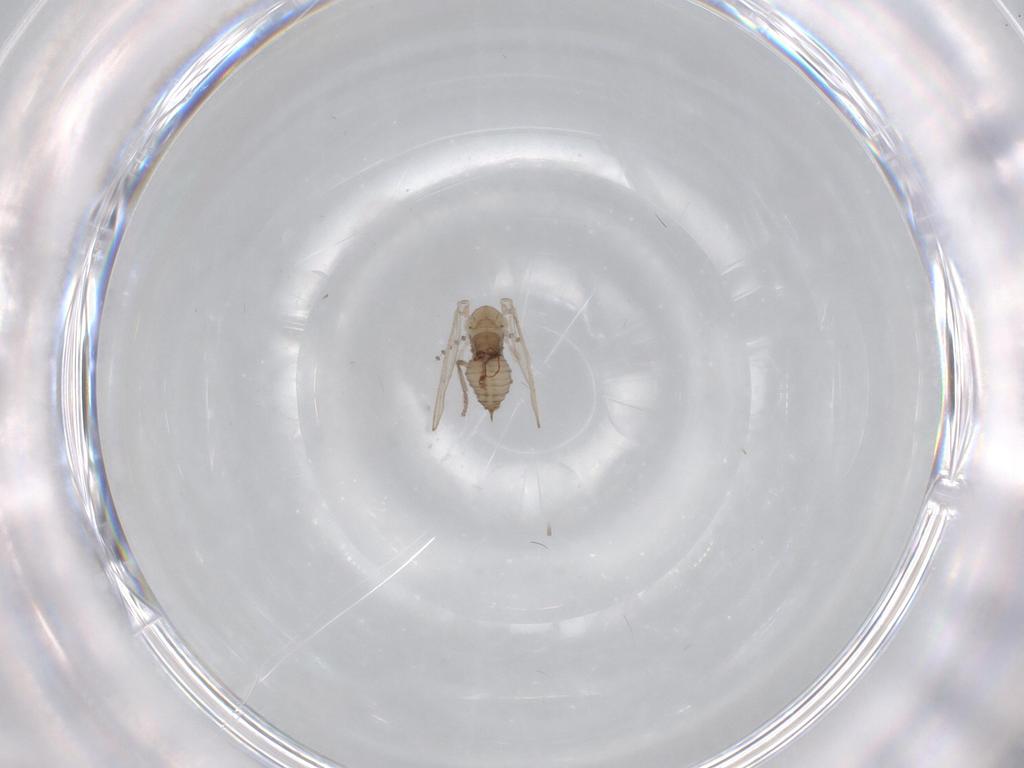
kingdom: Animalia
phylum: Arthropoda
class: Insecta
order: Diptera
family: Psychodidae
